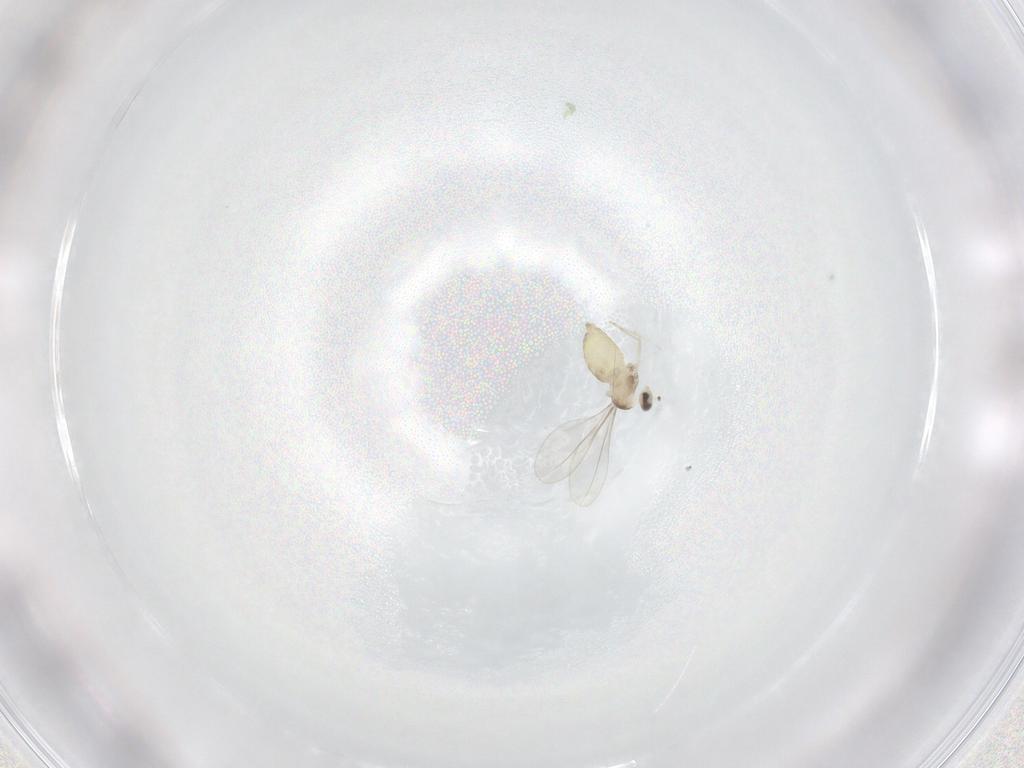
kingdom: Animalia
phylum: Arthropoda
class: Insecta
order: Diptera
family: Cecidomyiidae
